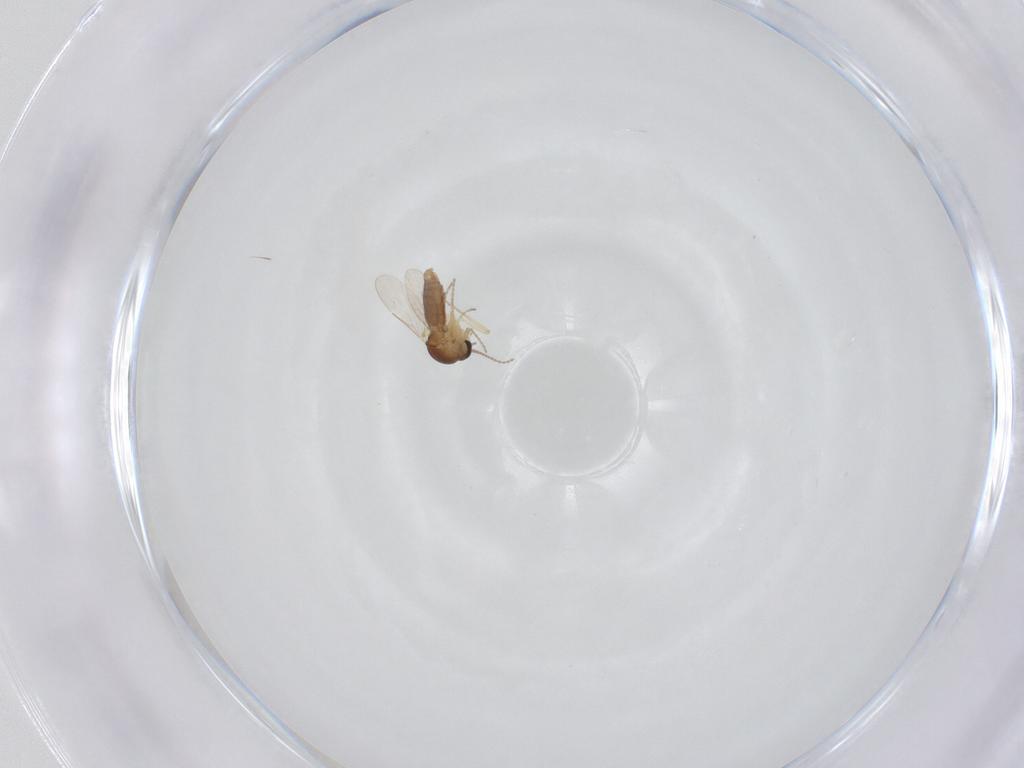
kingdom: Animalia
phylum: Arthropoda
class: Insecta
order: Diptera
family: Ceratopogonidae
